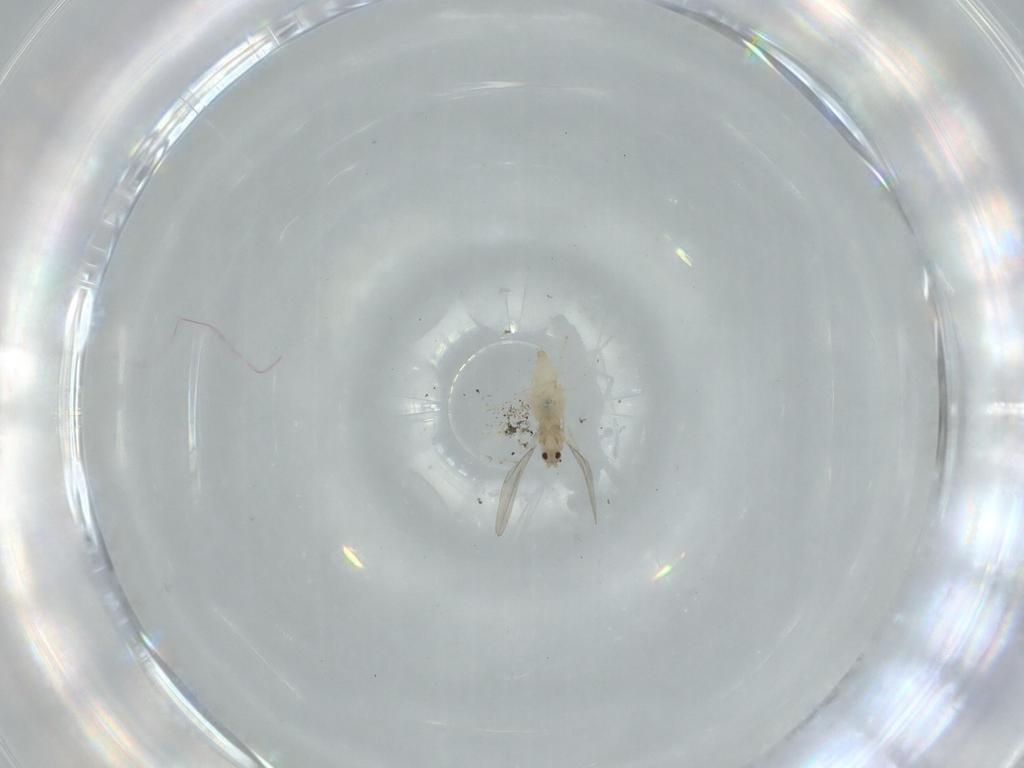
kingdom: Animalia
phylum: Arthropoda
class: Insecta
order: Diptera
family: Cecidomyiidae
